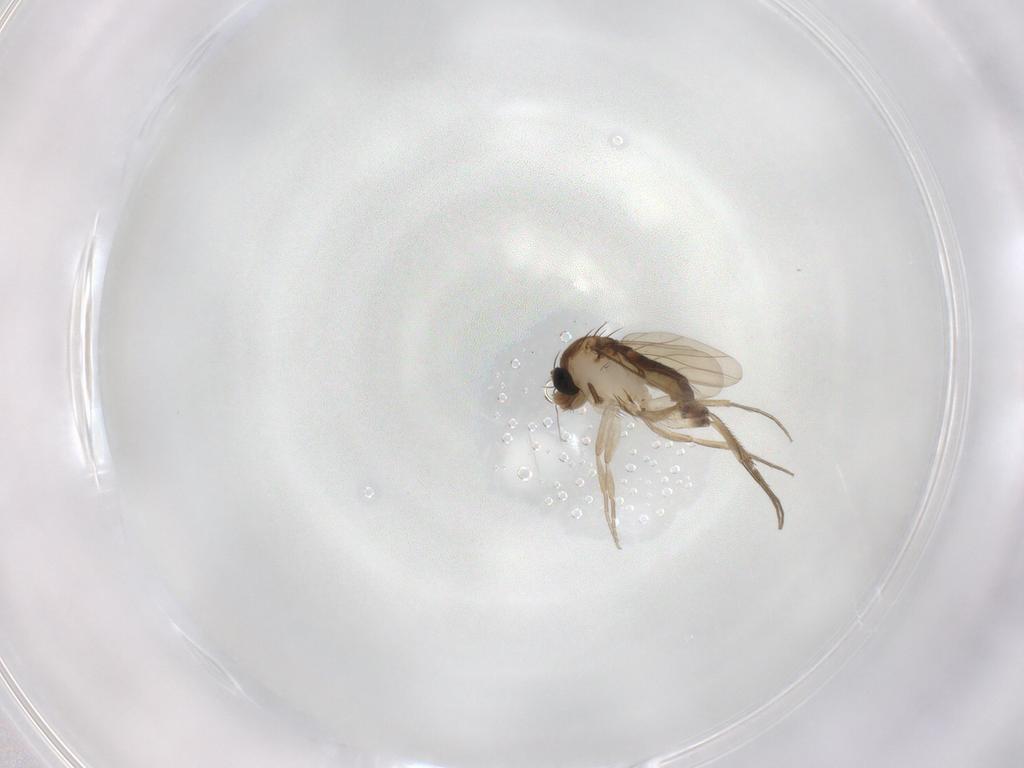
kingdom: Animalia
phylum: Arthropoda
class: Insecta
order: Diptera
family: Phoridae
